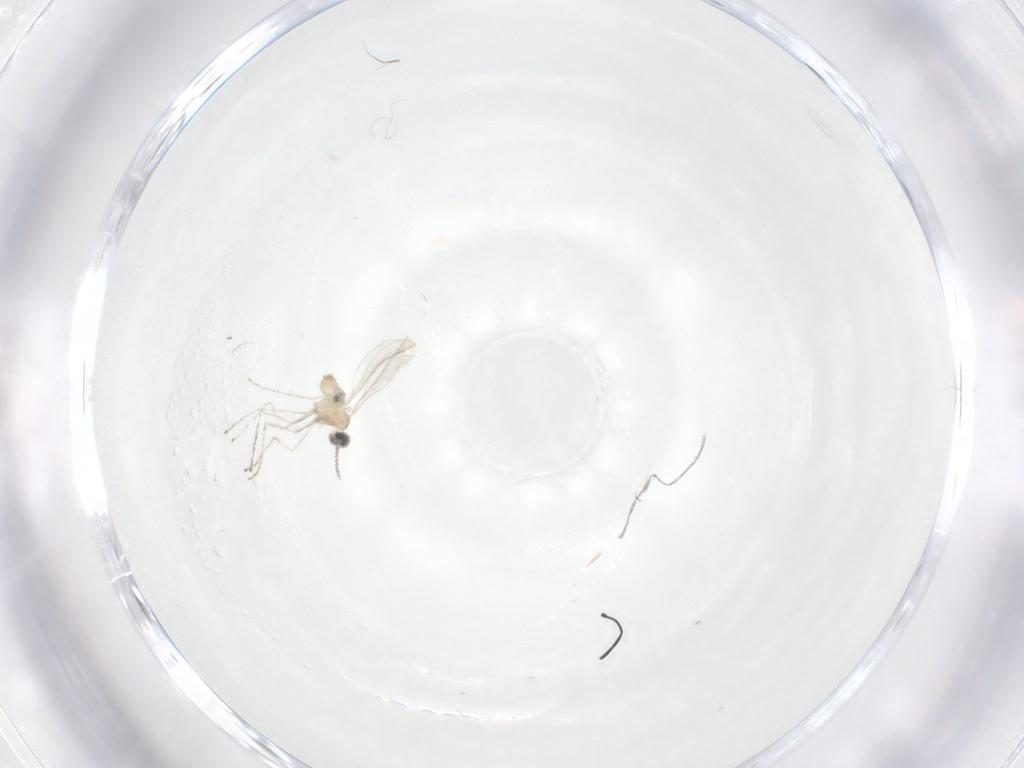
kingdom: Animalia
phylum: Arthropoda
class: Insecta
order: Diptera
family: Cecidomyiidae
